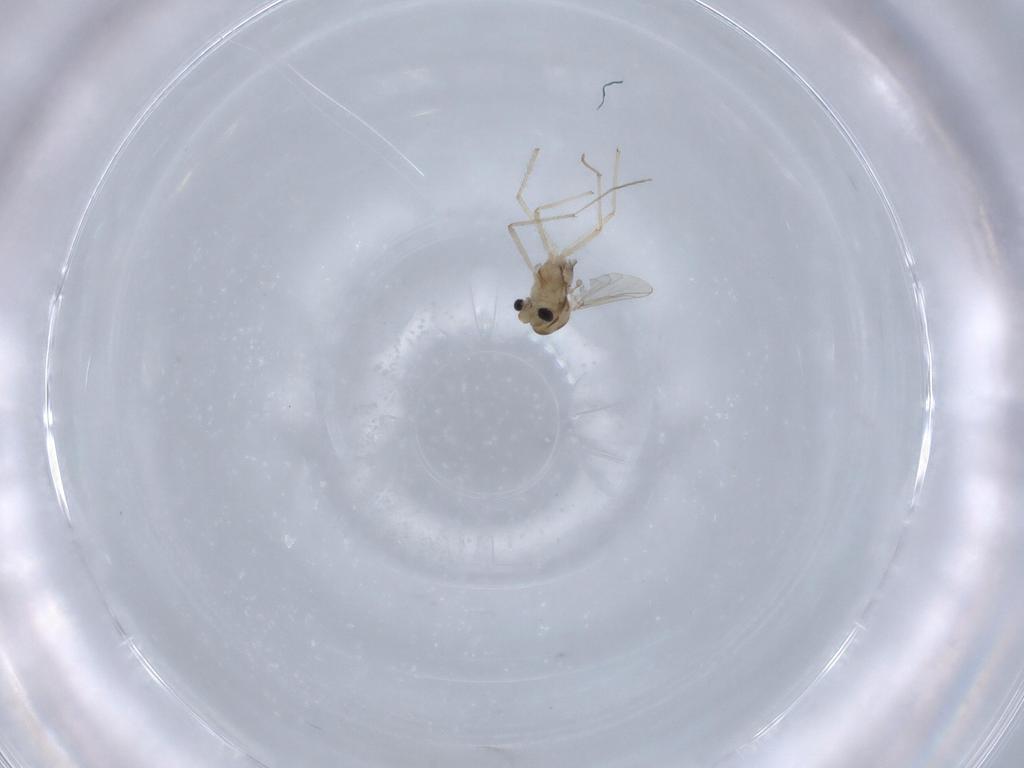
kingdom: Animalia
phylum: Arthropoda
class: Insecta
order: Diptera
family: Chironomidae
